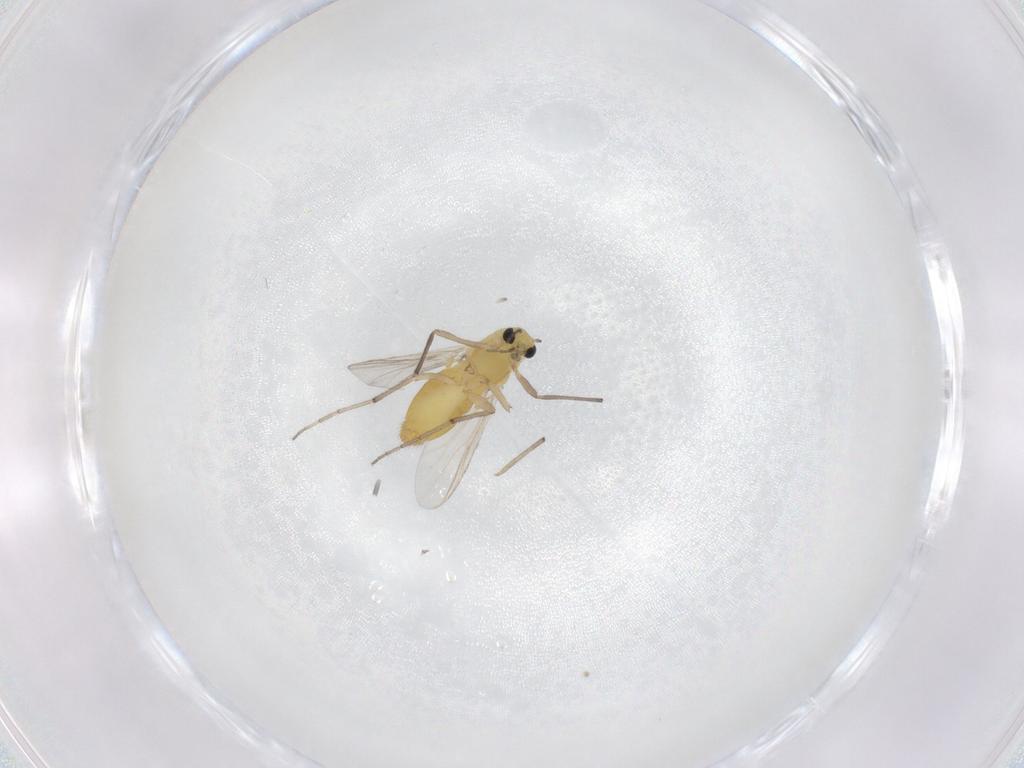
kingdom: Animalia
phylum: Arthropoda
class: Insecta
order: Diptera
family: Chironomidae
